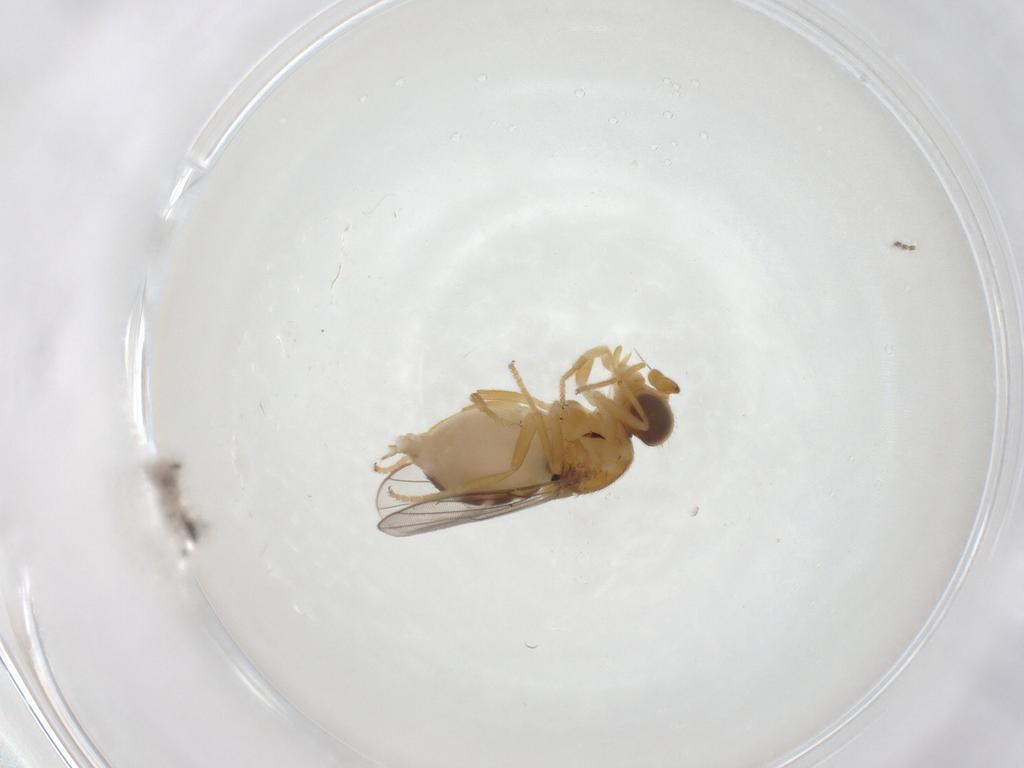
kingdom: Animalia
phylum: Arthropoda
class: Insecta
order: Diptera
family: Chloropidae
